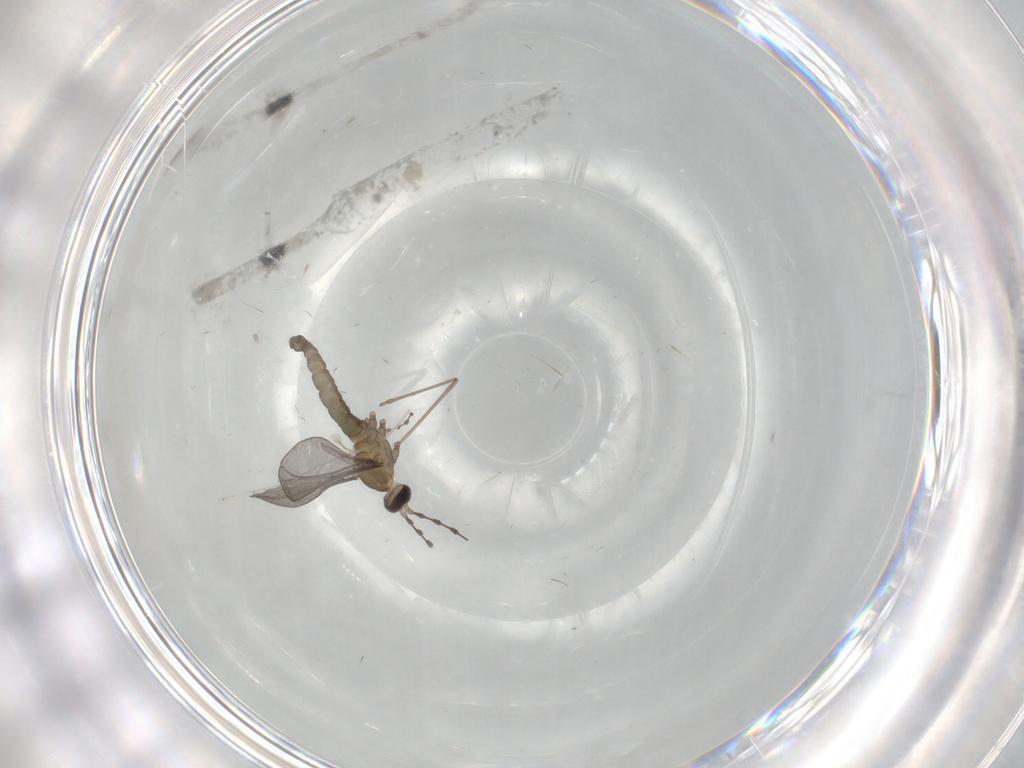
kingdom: Animalia
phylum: Arthropoda
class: Insecta
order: Diptera
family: Cecidomyiidae
